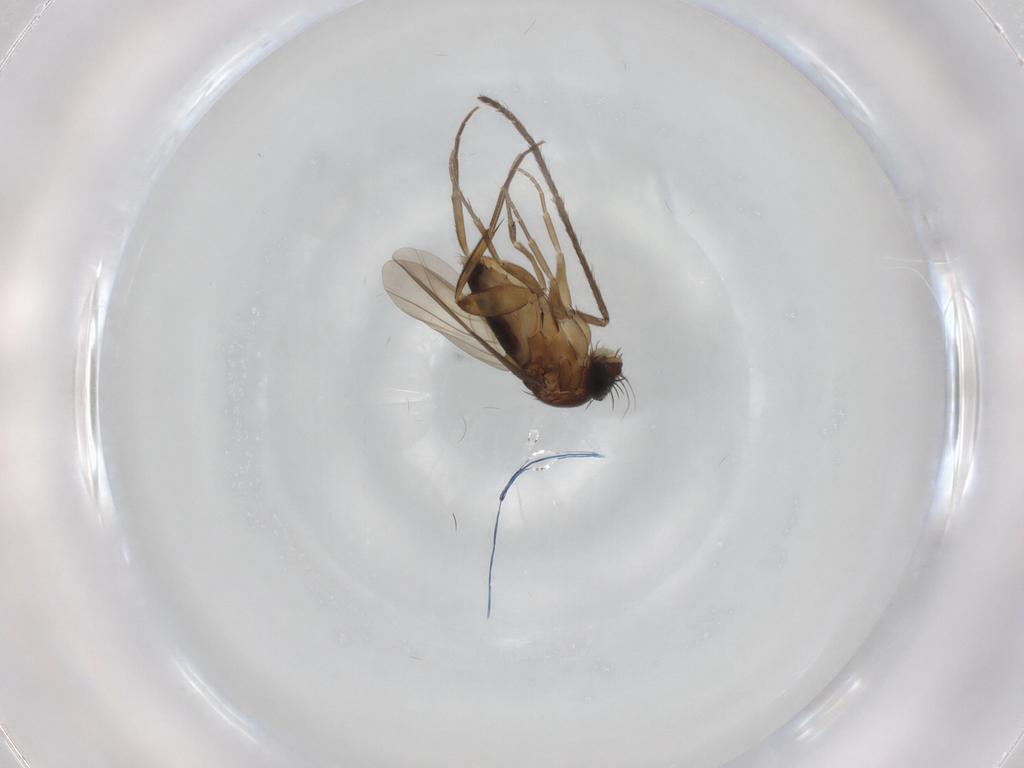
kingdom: Animalia
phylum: Arthropoda
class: Insecta
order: Diptera
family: Phoridae
